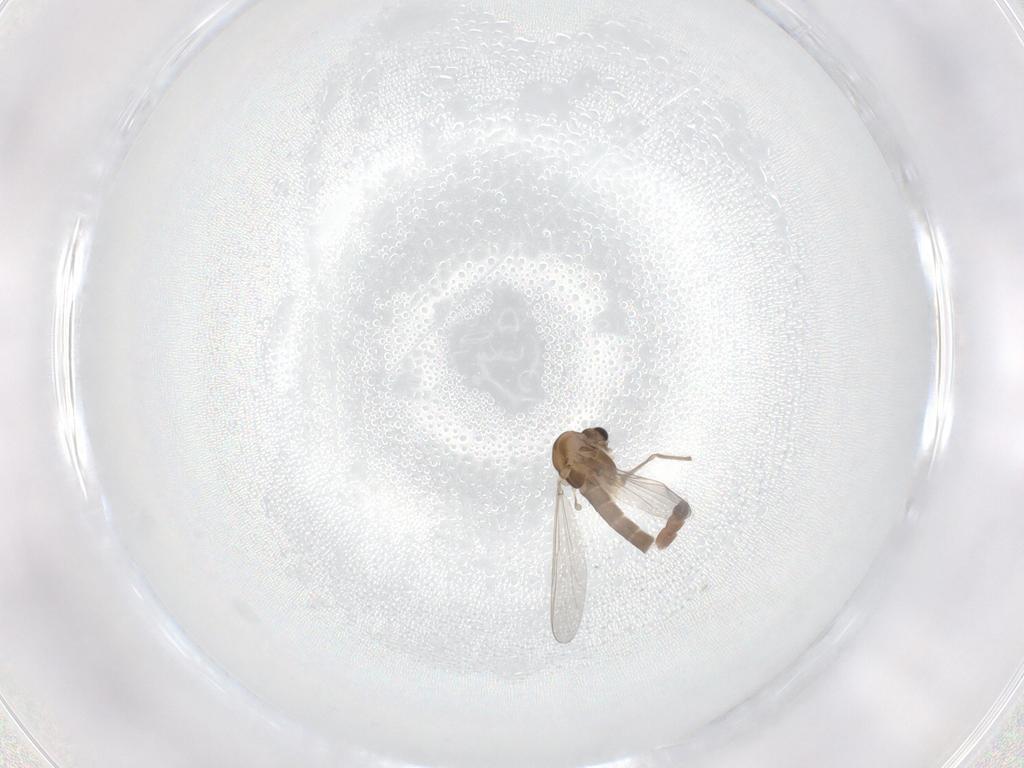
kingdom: Animalia
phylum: Arthropoda
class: Insecta
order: Diptera
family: Chironomidae
